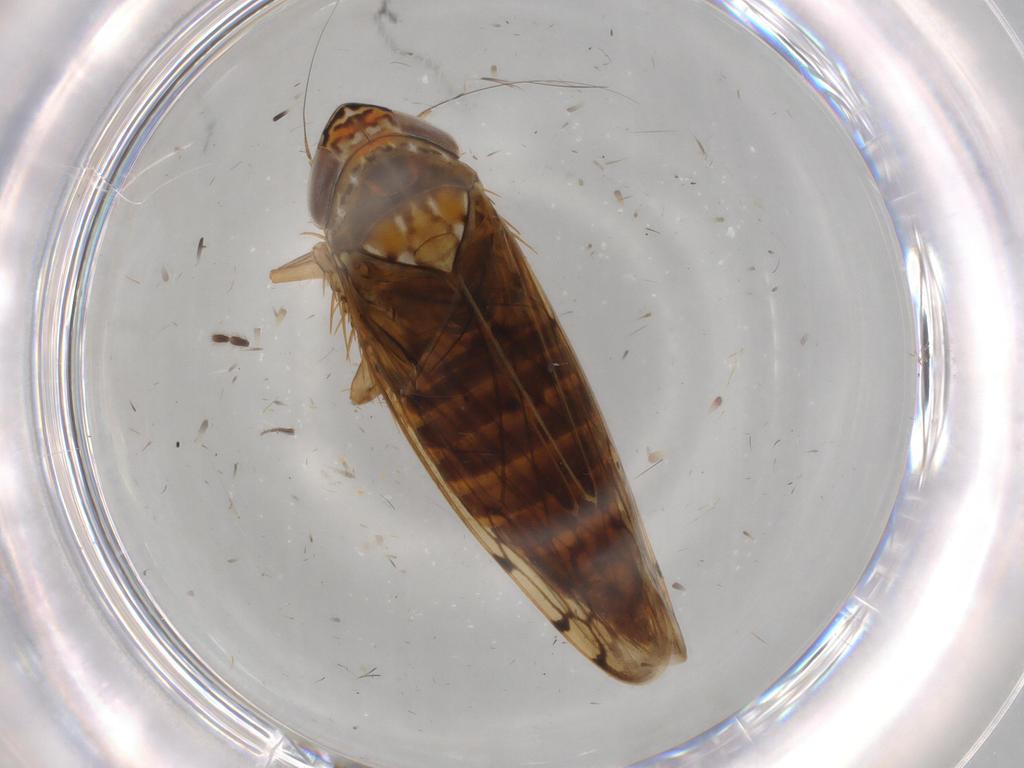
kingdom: Animalia
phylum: Arthropoda
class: Insecta
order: Hemiptera
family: Cicadellidae
